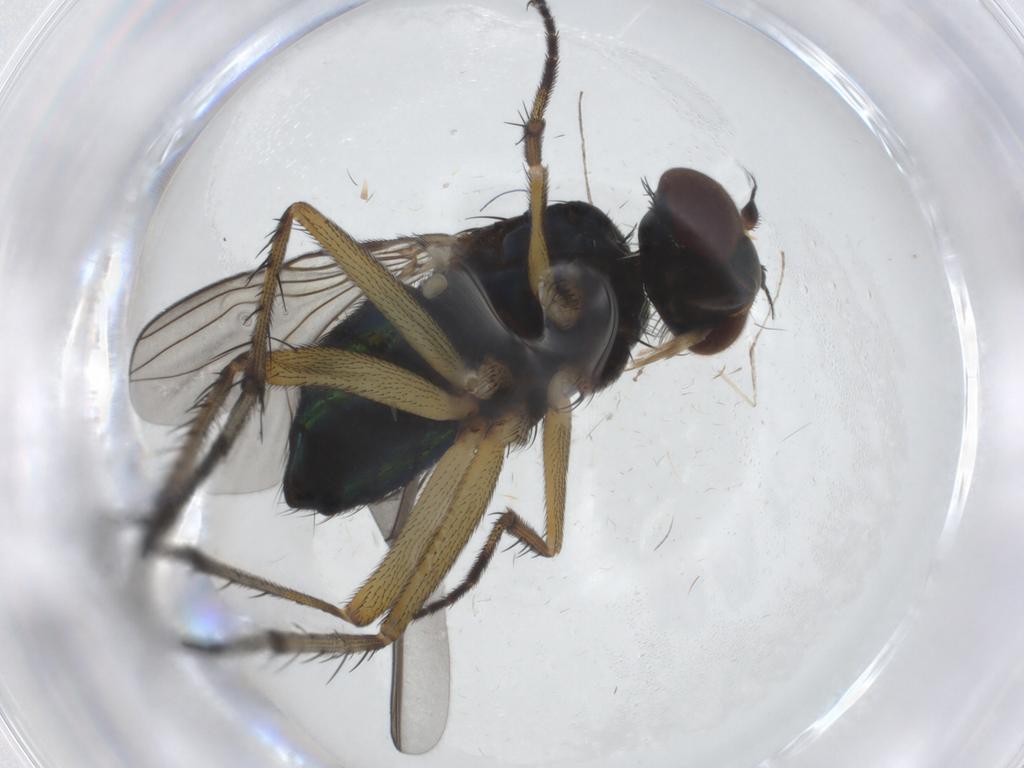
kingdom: Animalia
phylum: Arthropoda
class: Insecta
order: Diptera
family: Dolichopodidae
